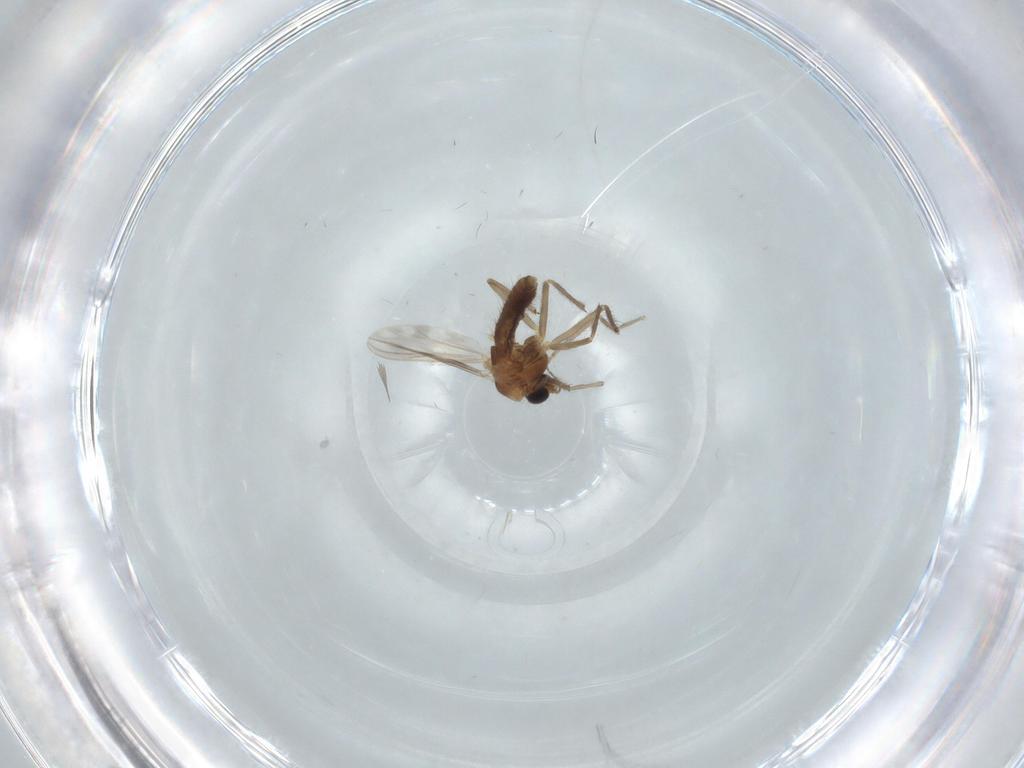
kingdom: Animalia
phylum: Arthropoda
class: Insecta
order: Diptera
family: Chironomidae
